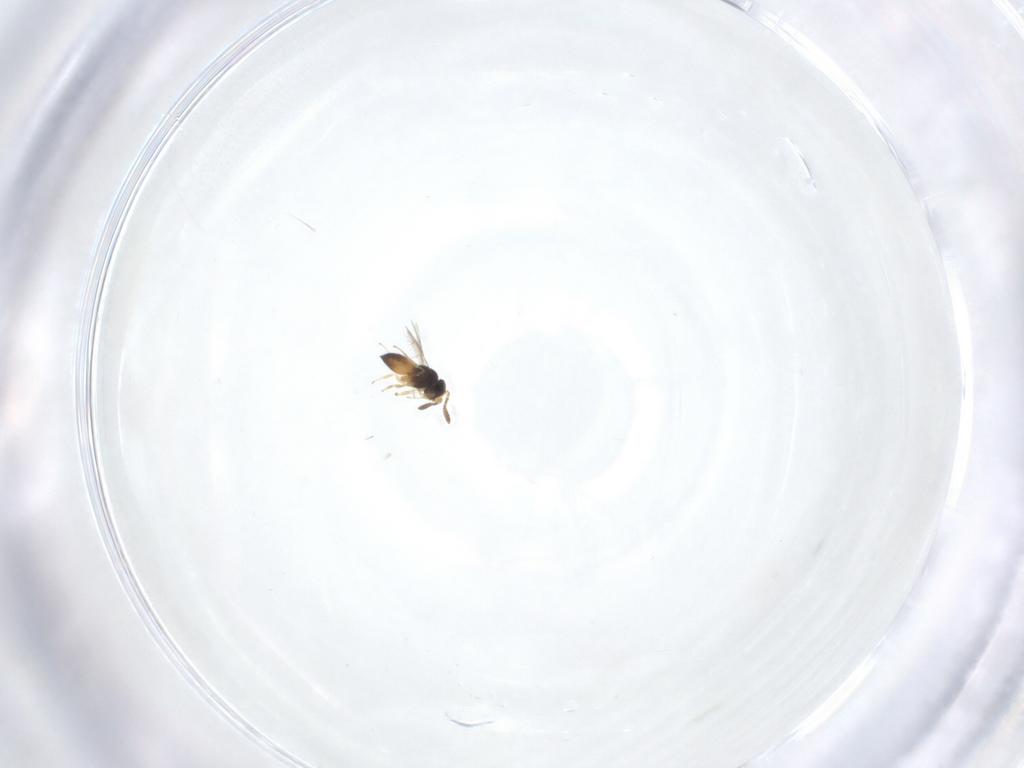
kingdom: Animalia
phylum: Arthropoda
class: Insecta
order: Hymenoptera
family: Scelionidae
